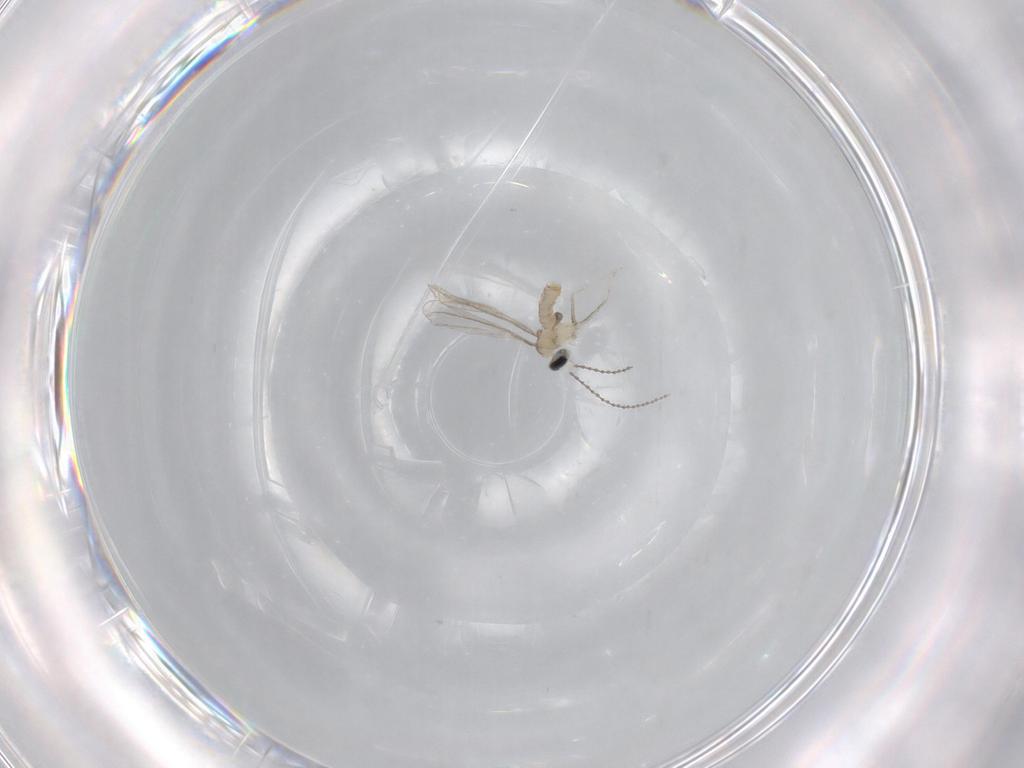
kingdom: Animalia
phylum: Arthropoda
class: Insecta
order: Diptera
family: Cecidomyiidae
